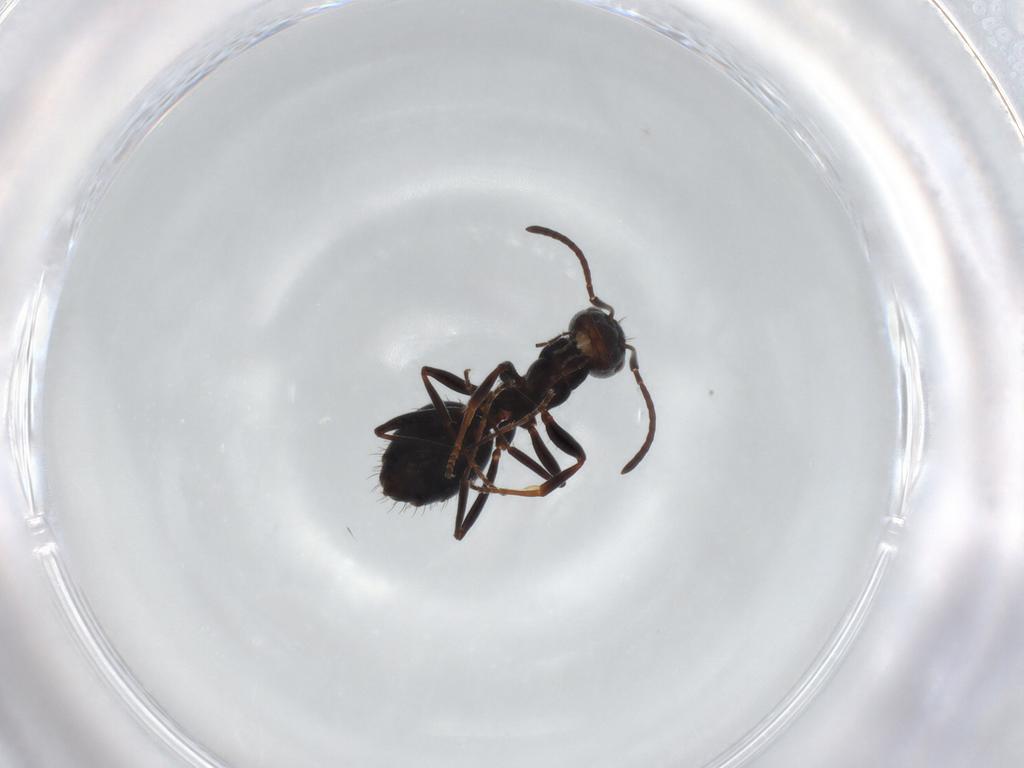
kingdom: Animalia
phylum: Arthropoda
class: Insecta
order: Hymenoptera
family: Formicidae
